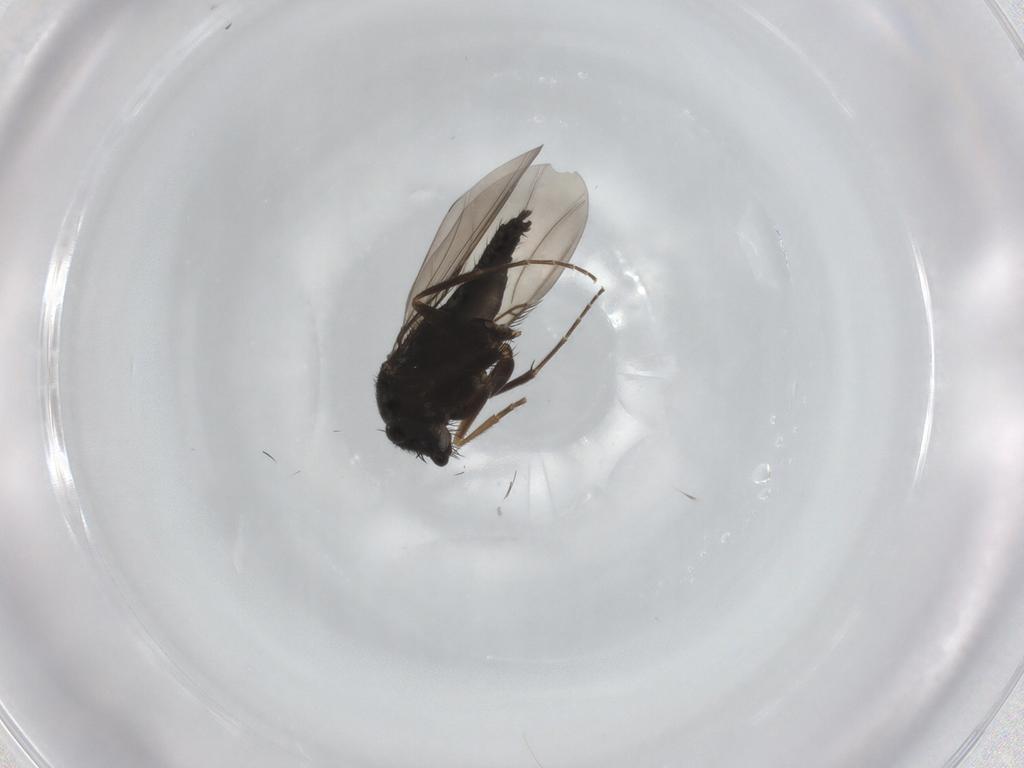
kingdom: Animalia
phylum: Arthropoda
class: Insecta
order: Diptera
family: Phoridae
